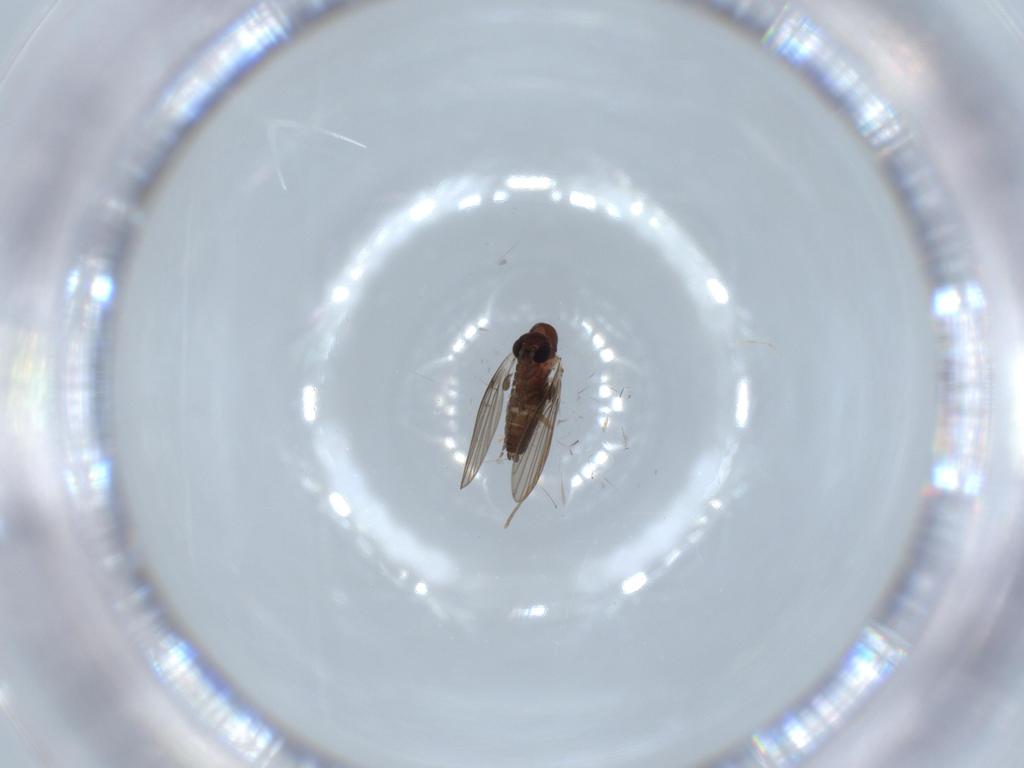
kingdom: Animalia
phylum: Arthropoda
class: Insecta
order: Diptera
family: Cecidomyiidae
